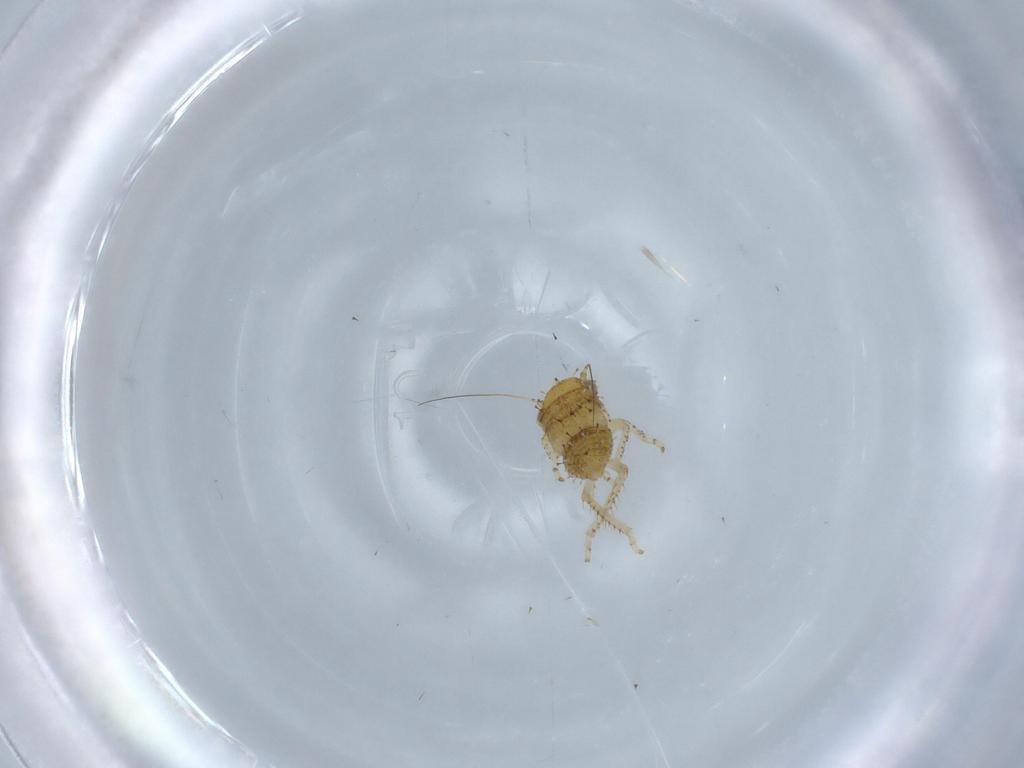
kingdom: Animalia
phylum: Arthropoda
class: Insecta
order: Hemiptera
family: Cicadellidae
